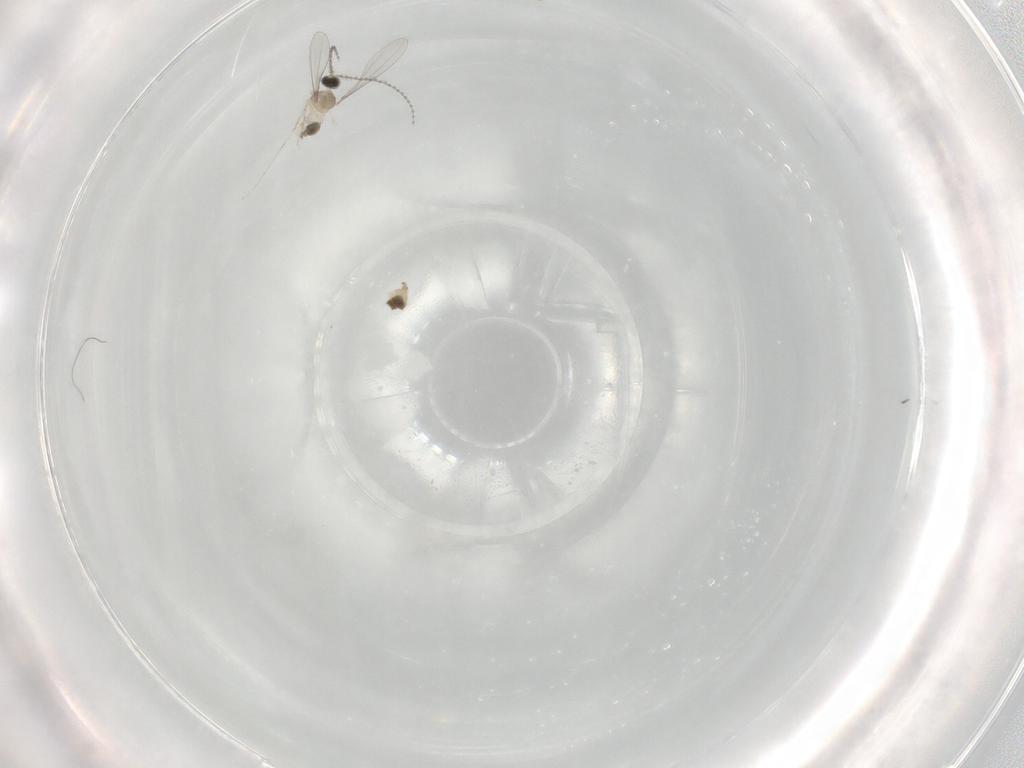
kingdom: Animalia
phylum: Arthropoda
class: Insecta
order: Diptera
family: Cecidomyiidae
